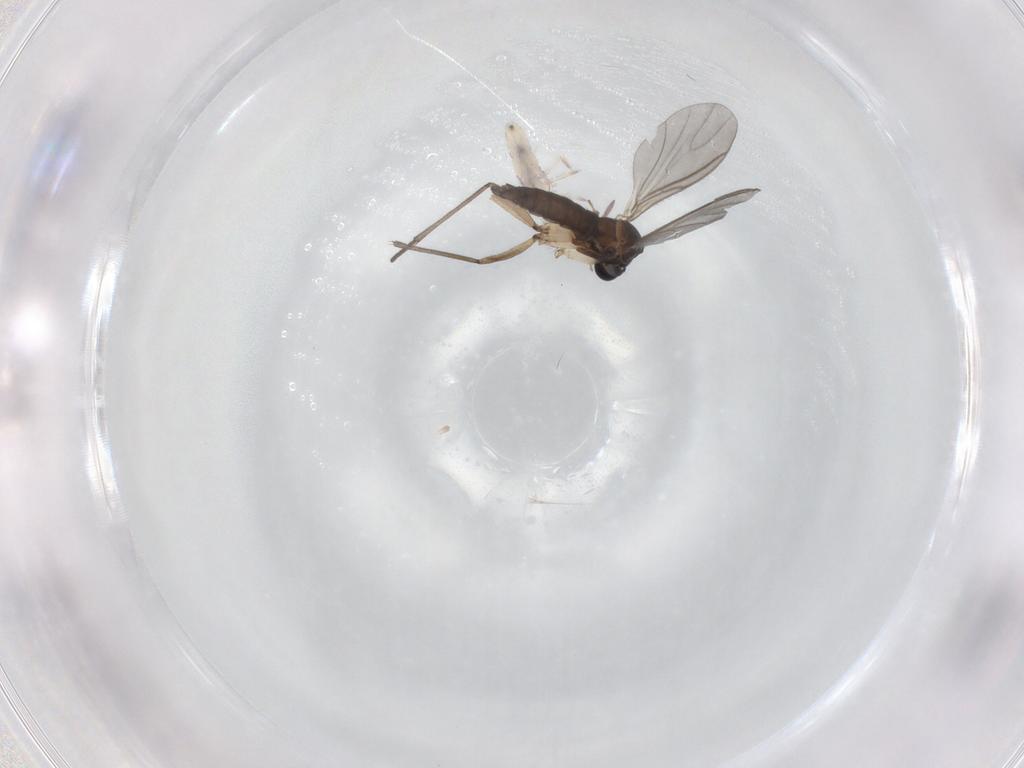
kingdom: Animalia
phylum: Arthropoda
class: Insecta
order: Diptera
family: Sciaridae
